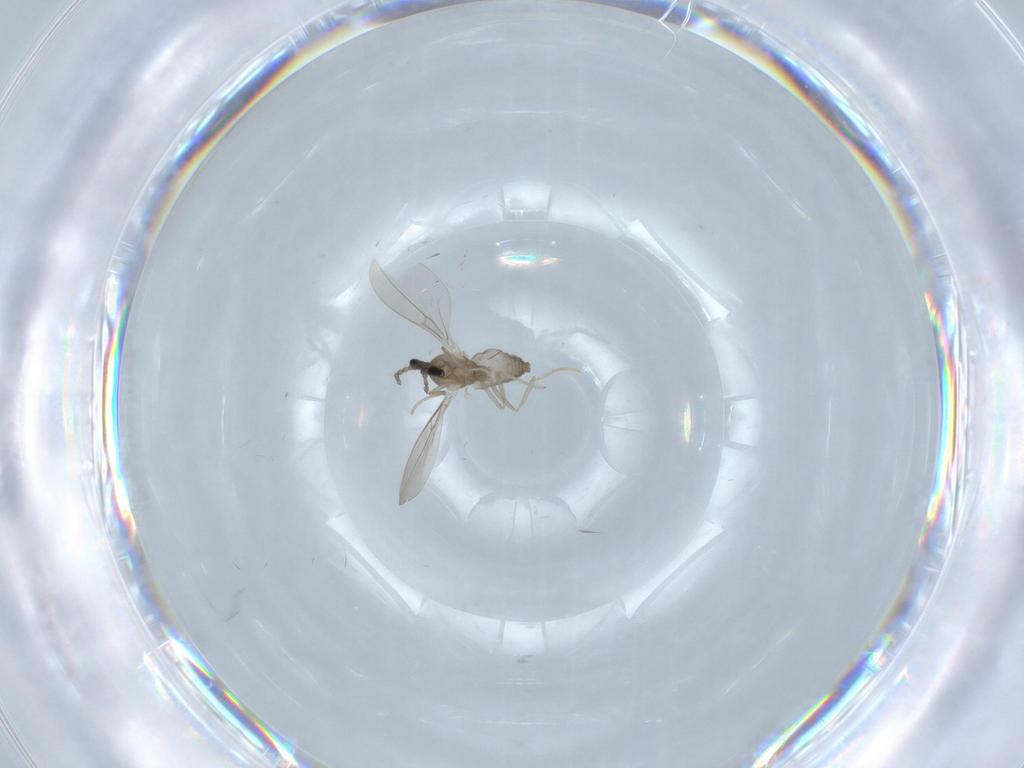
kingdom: Animalia
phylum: Arthropoda
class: Insecta
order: Diptera
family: Cecidomyiidae
